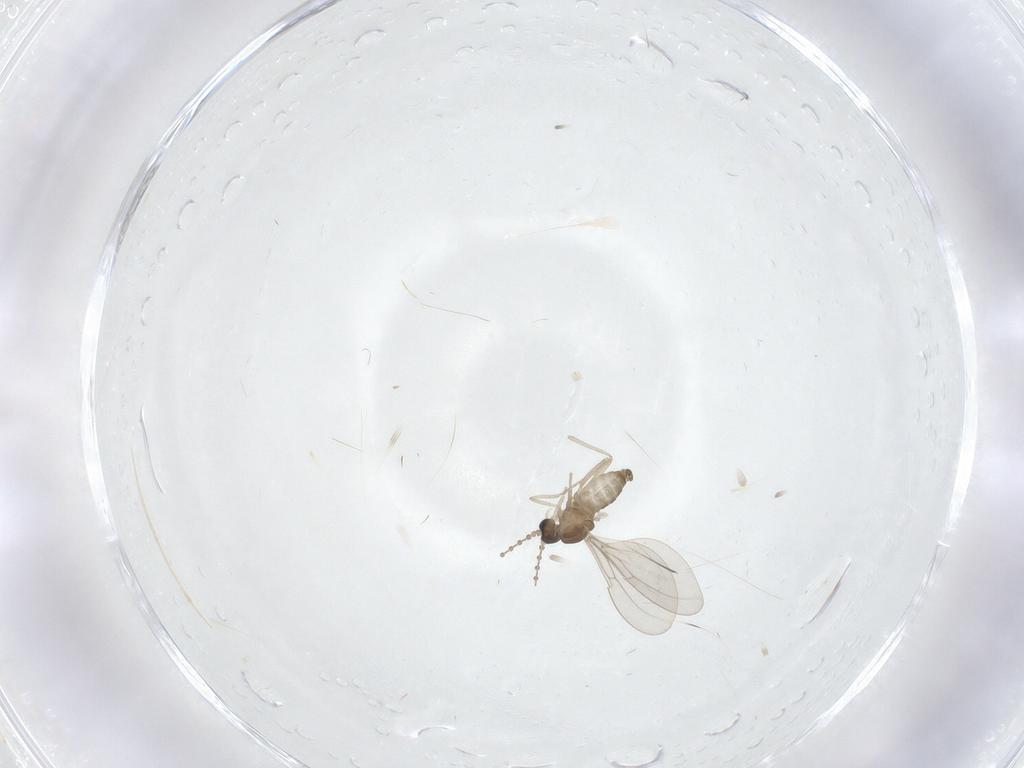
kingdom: Animalia
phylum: Arthropoda
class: Insecta
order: Diptera
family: Cecidomyiidae
